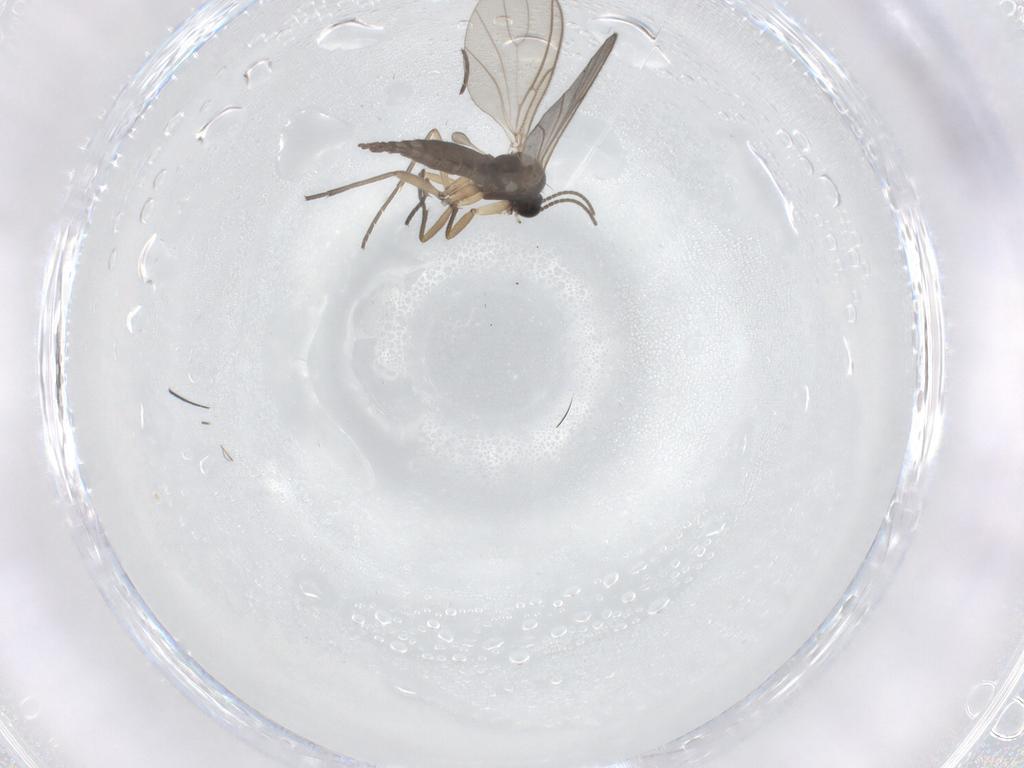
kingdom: Animalia
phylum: Arthropoda
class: Insecta
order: Diptera
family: Sciaridae
